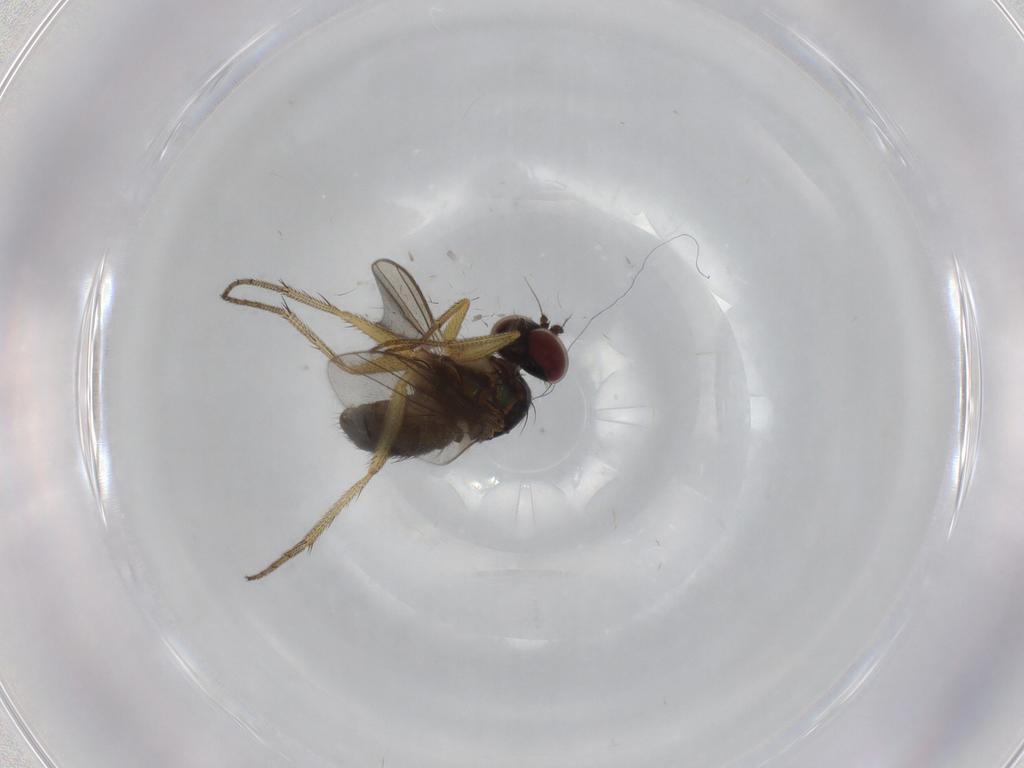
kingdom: Animalia
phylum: Arthropoda
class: Insecta
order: Diptera
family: Dolichopodidae
